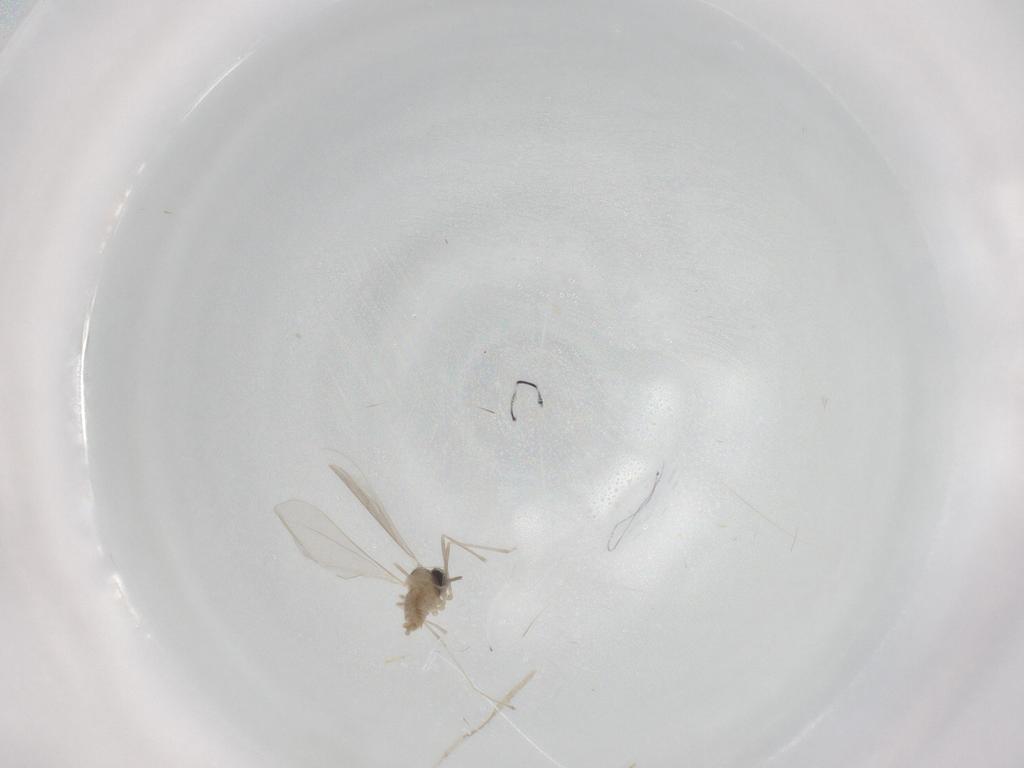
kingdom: Animalia
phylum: Arthropoda
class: Insecta
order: Diptera
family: Cecidomyiidae
